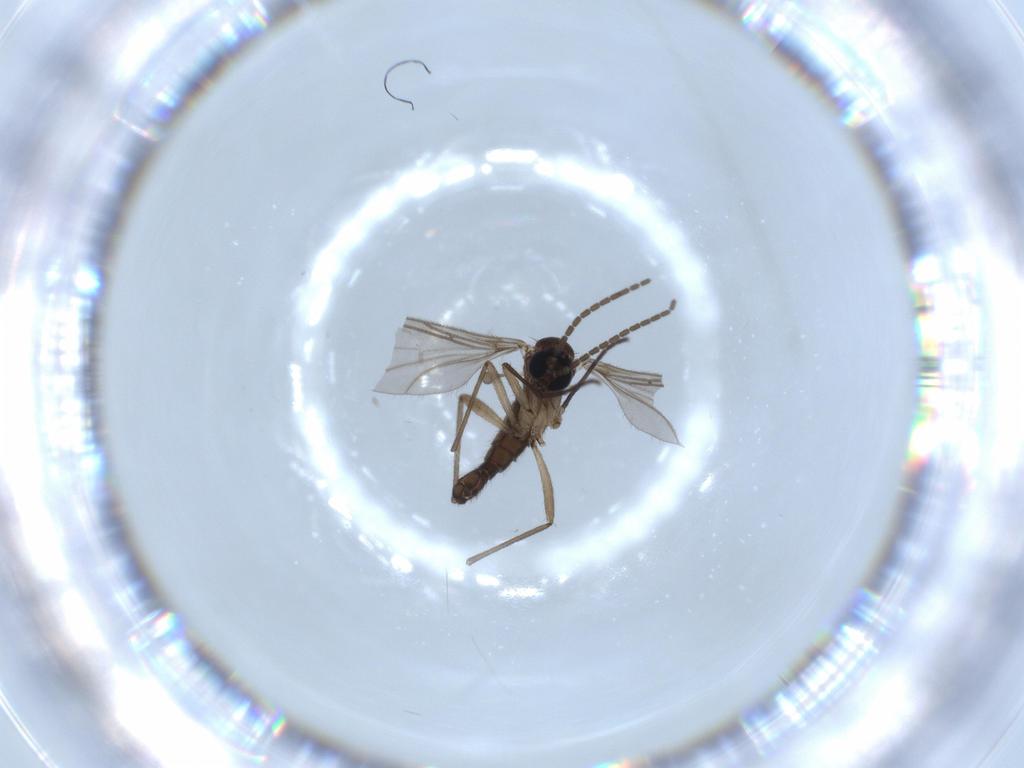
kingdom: Animalia
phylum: Arthropoda
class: Insecta
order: Diptera
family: Sciaridae
